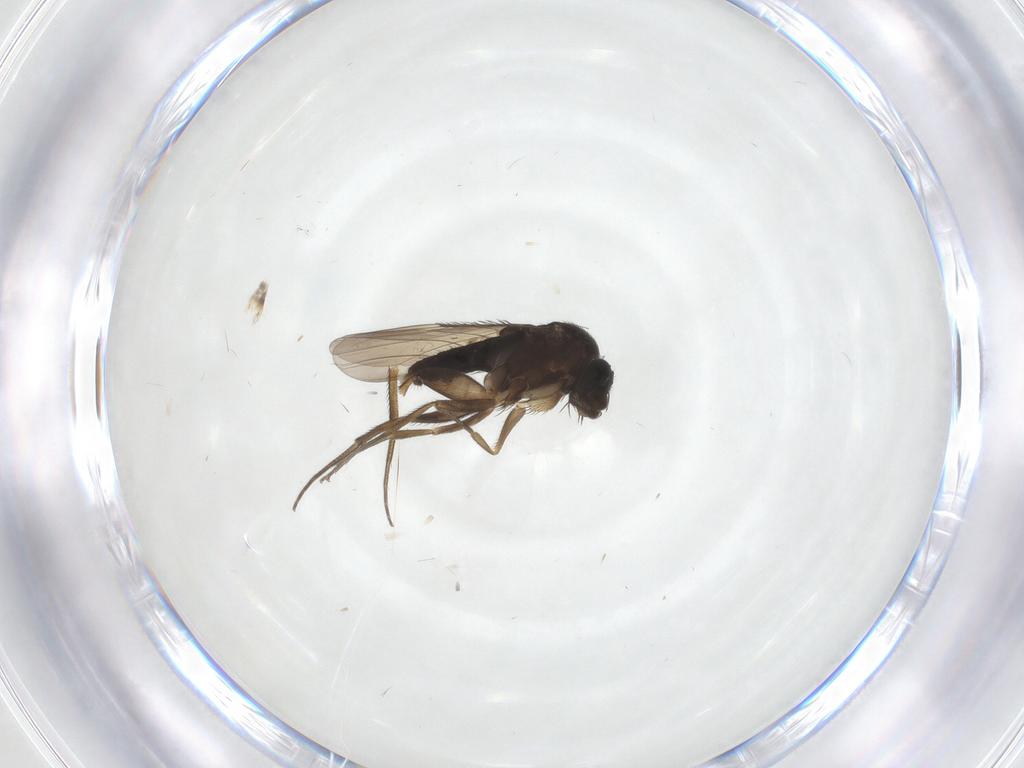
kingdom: Animalia
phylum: Arthropoda
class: Insecta
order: Diptera
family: Phoridae
